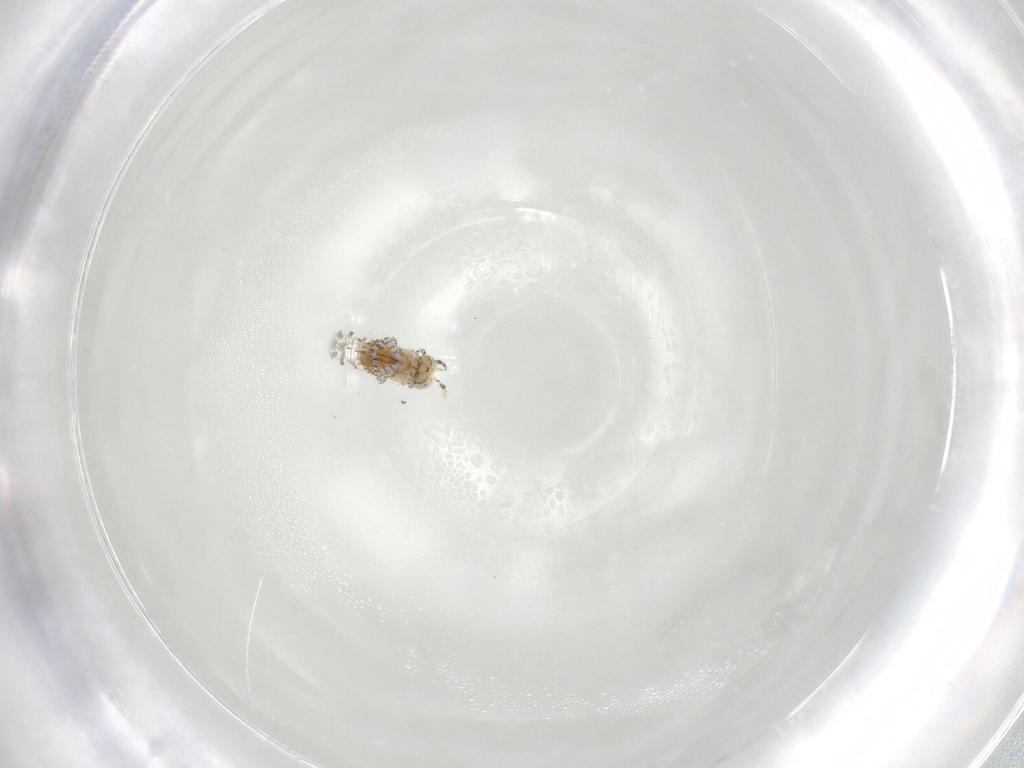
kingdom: Animalia
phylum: Arthropoda
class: Insecta
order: Hymenoptera
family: Aphelinidae
